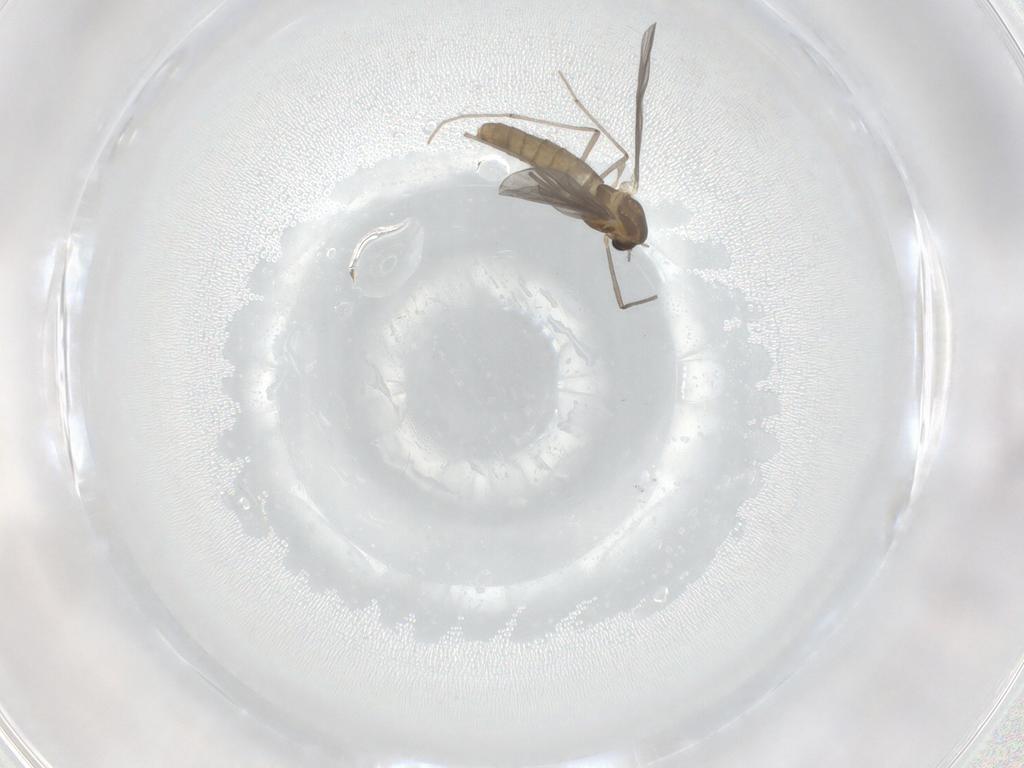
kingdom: Animalia
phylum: Arthropoda
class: Insecta
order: Diptera
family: Chironomidae
